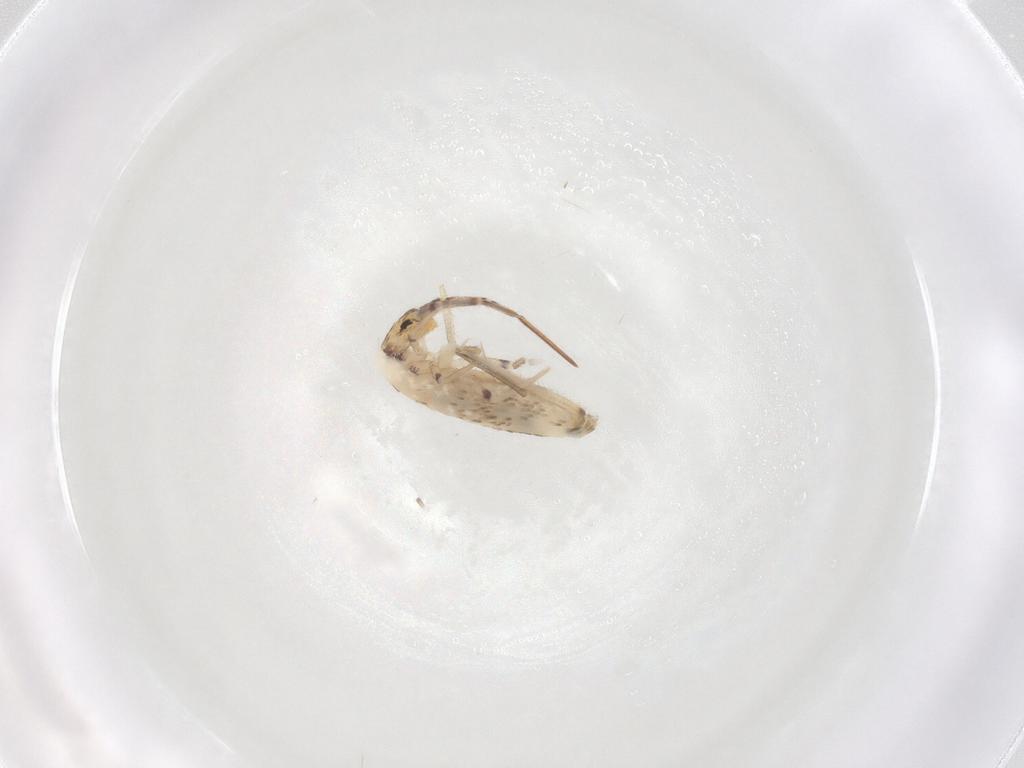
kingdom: Animalia
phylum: Arthropoda
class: Collembola
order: Entomobryomorpha
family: Entomobryidae
